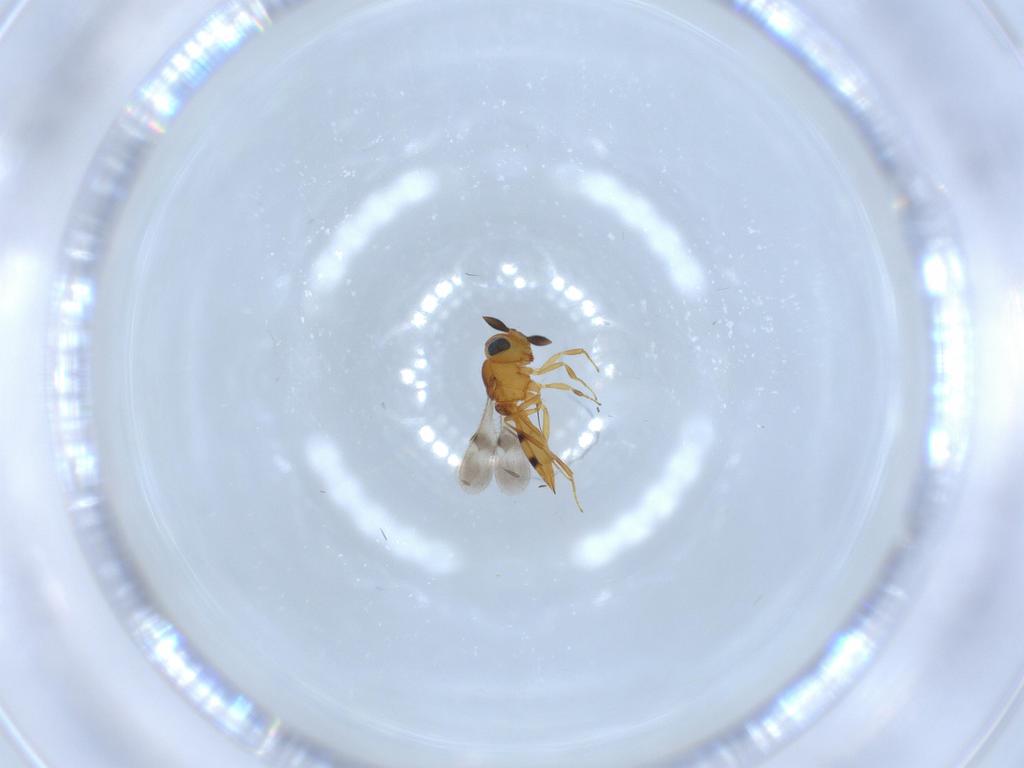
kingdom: Animalia
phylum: Arthropoda
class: Insecta
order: Hymenoptera
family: Scelionidae
